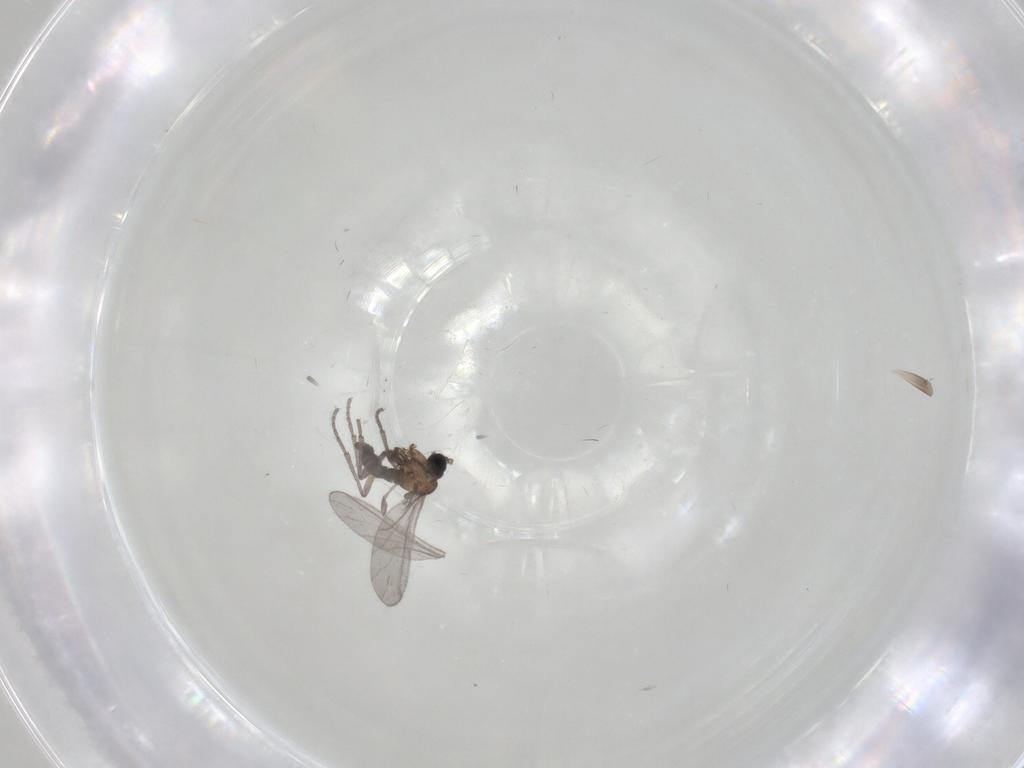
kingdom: Animalia
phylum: Arthropoda
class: Insecta
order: Diptera
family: Sciaridae
